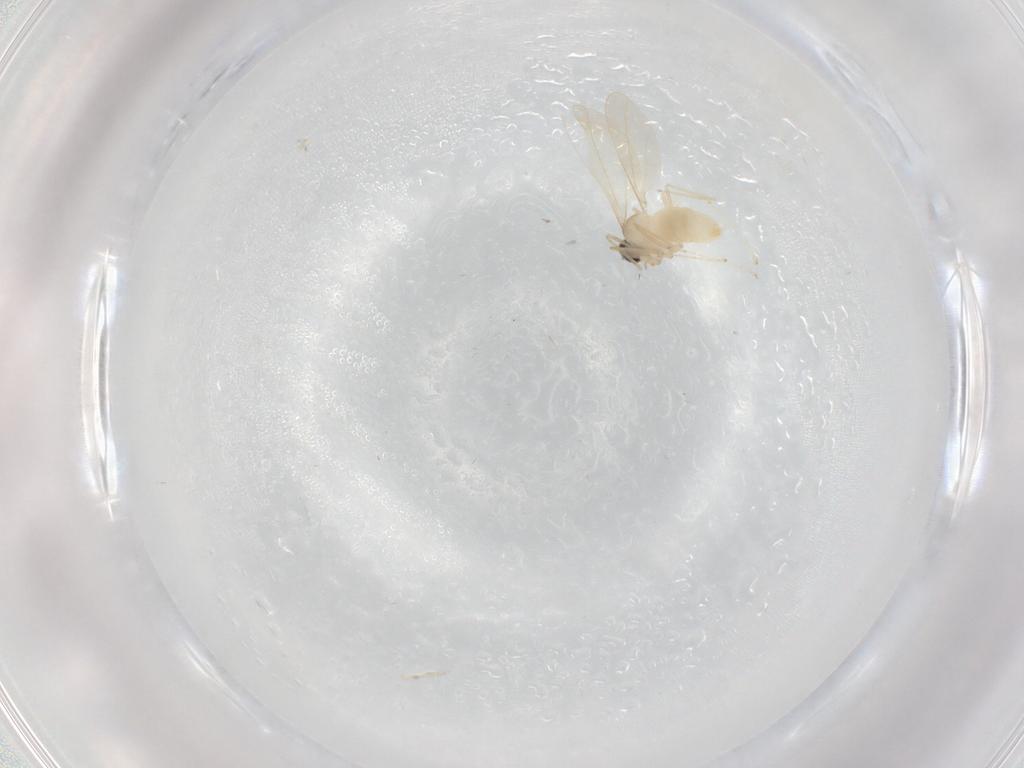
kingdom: Animalia
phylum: Arthropoda
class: Insecta
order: Diptera
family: Cecidomyiidae
